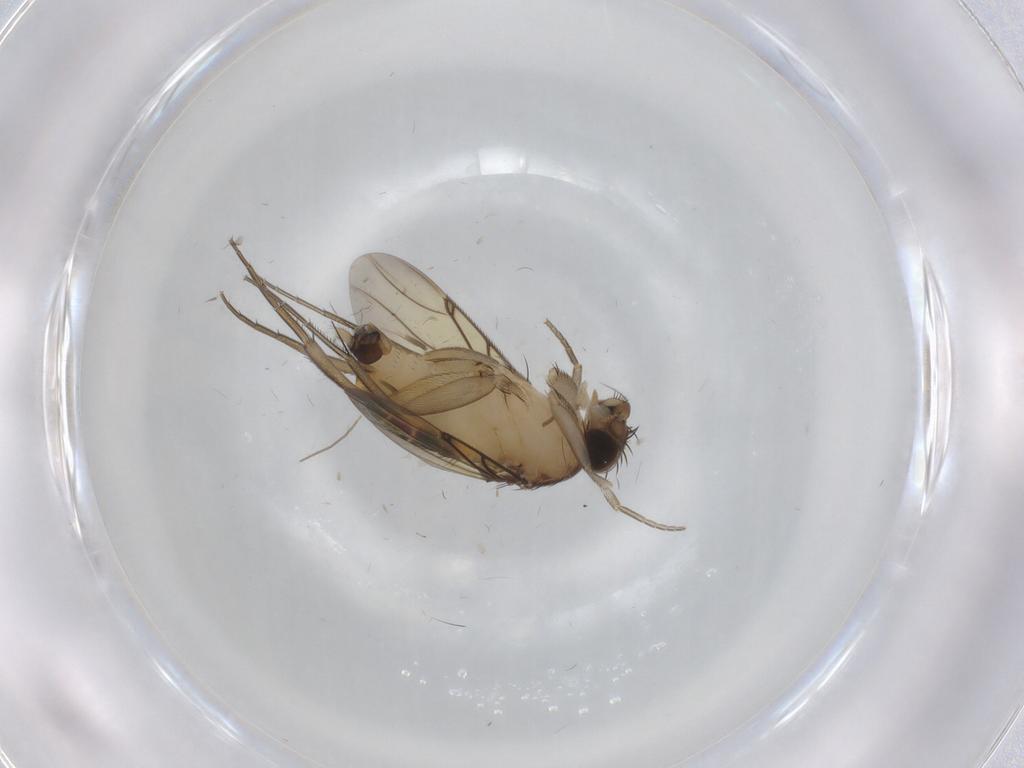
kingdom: Animalia
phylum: Arthropoda
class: Insecta
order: Diptera
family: Psychodidae
